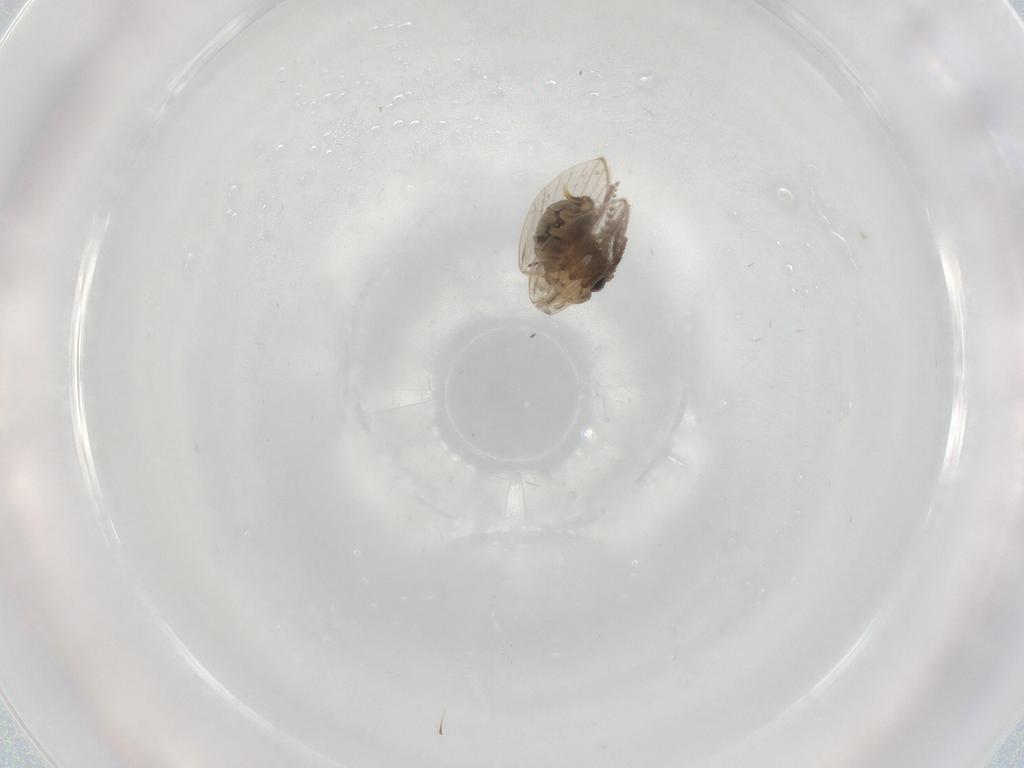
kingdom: Animalia
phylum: Arthropoda
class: Insecta
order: Diptera
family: Psychodidae
